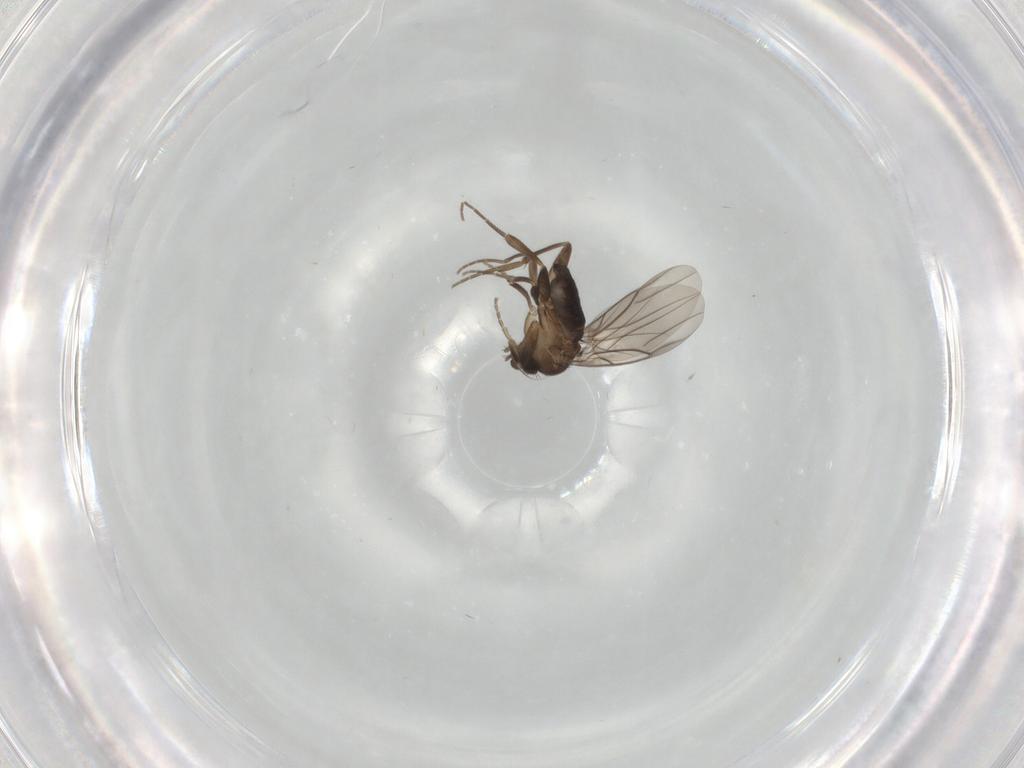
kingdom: Animalia
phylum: Arthropoda
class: Insecta
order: Diptera
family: Phoridae
